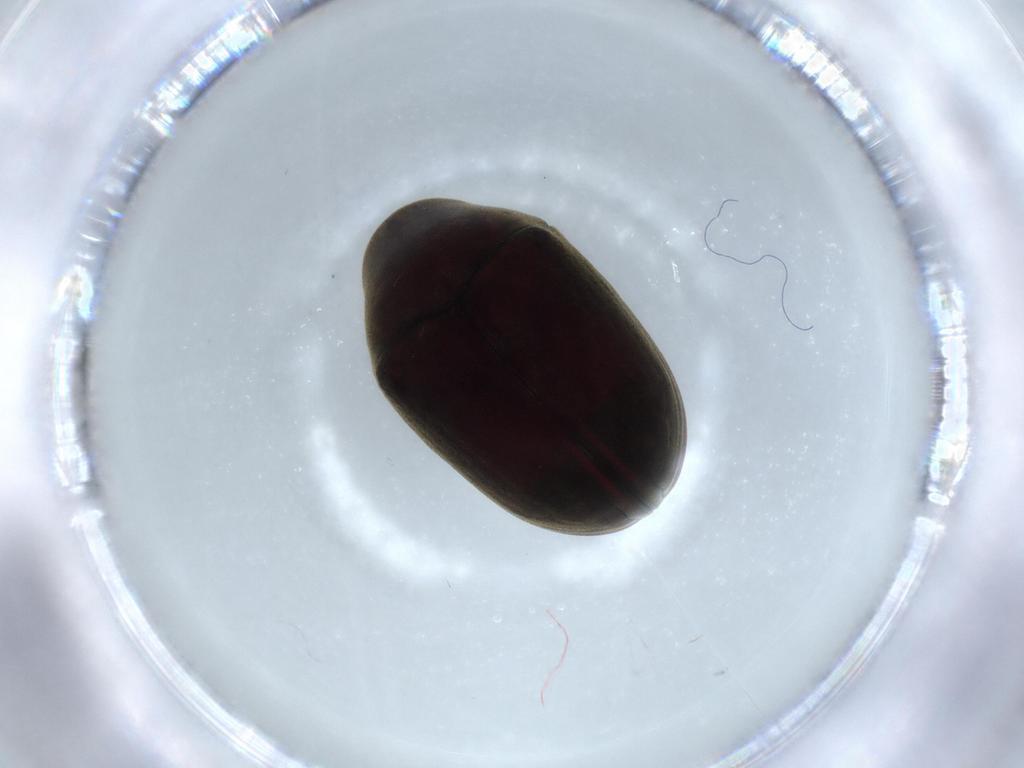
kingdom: Animalia
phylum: Arthropoda
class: Insecta
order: Coleoptera
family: Ptinidae
